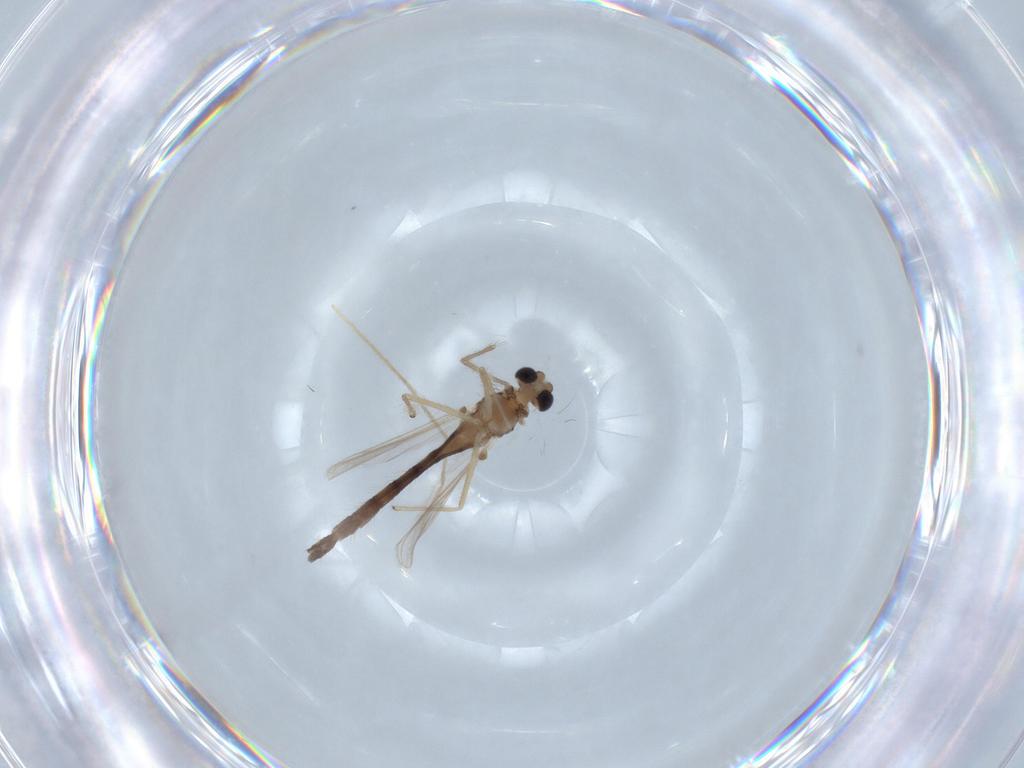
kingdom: Animalia
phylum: Arthropoda
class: Insecta
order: Diptera
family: Chironomidae
